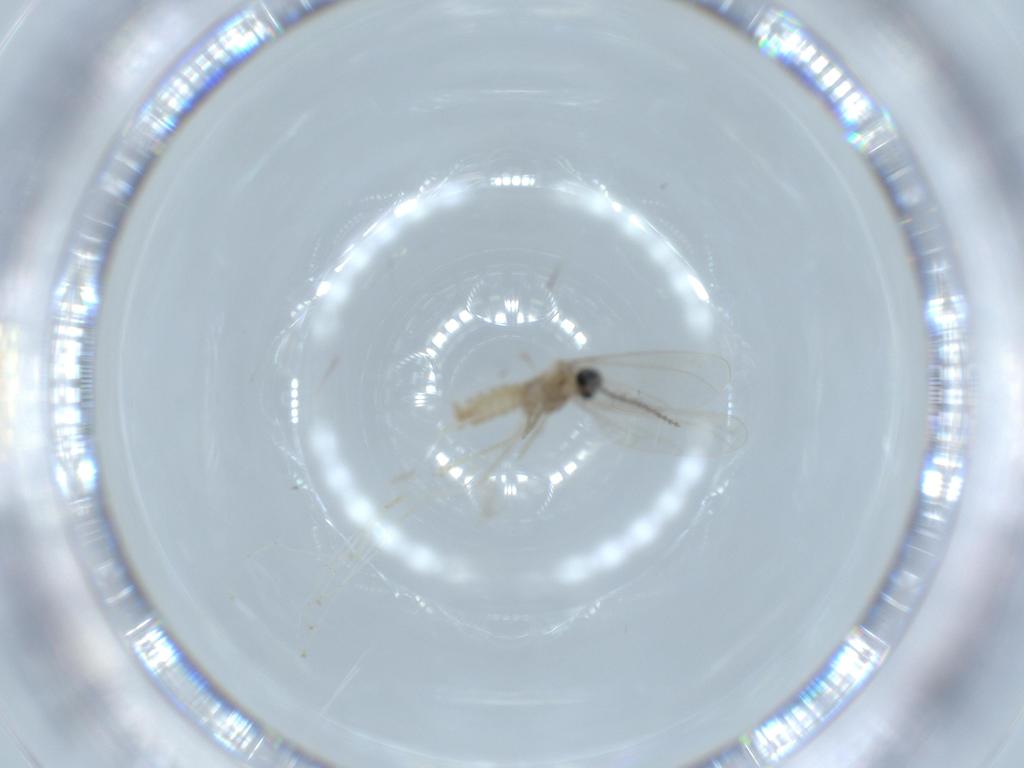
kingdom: Animalia
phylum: Arthropoda
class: Insecta
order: Diptera
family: Cecidomyiidae
